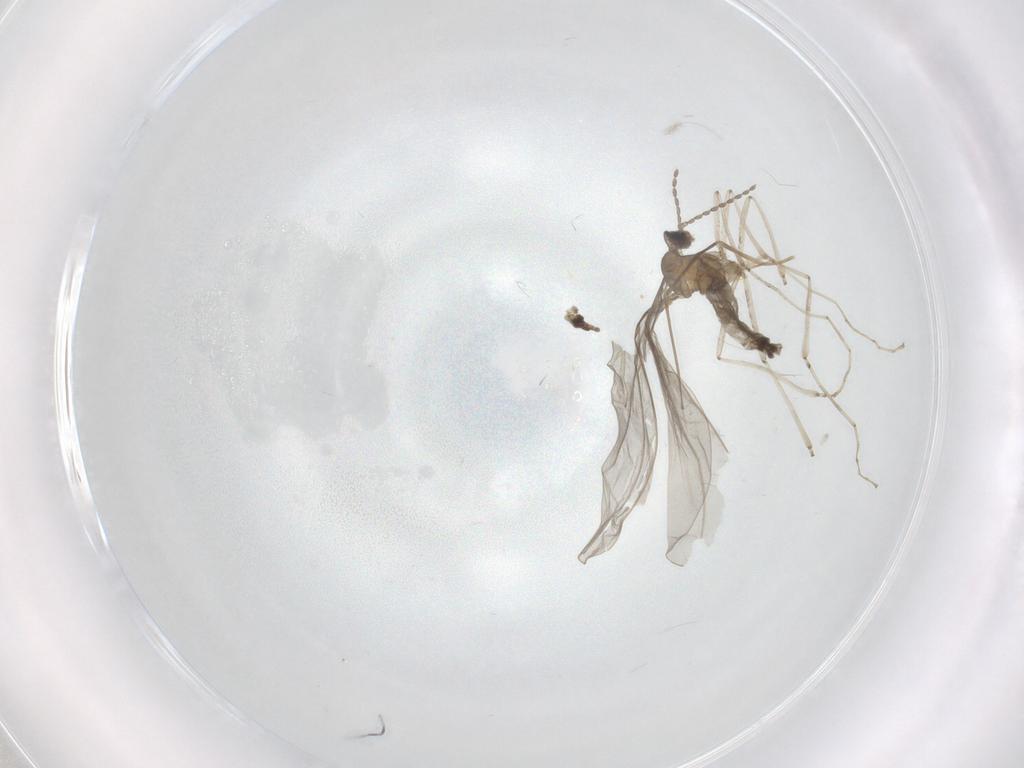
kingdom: Animalia
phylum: Arthropoda
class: Insecta
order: Diptera
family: Cecidomyiidae
